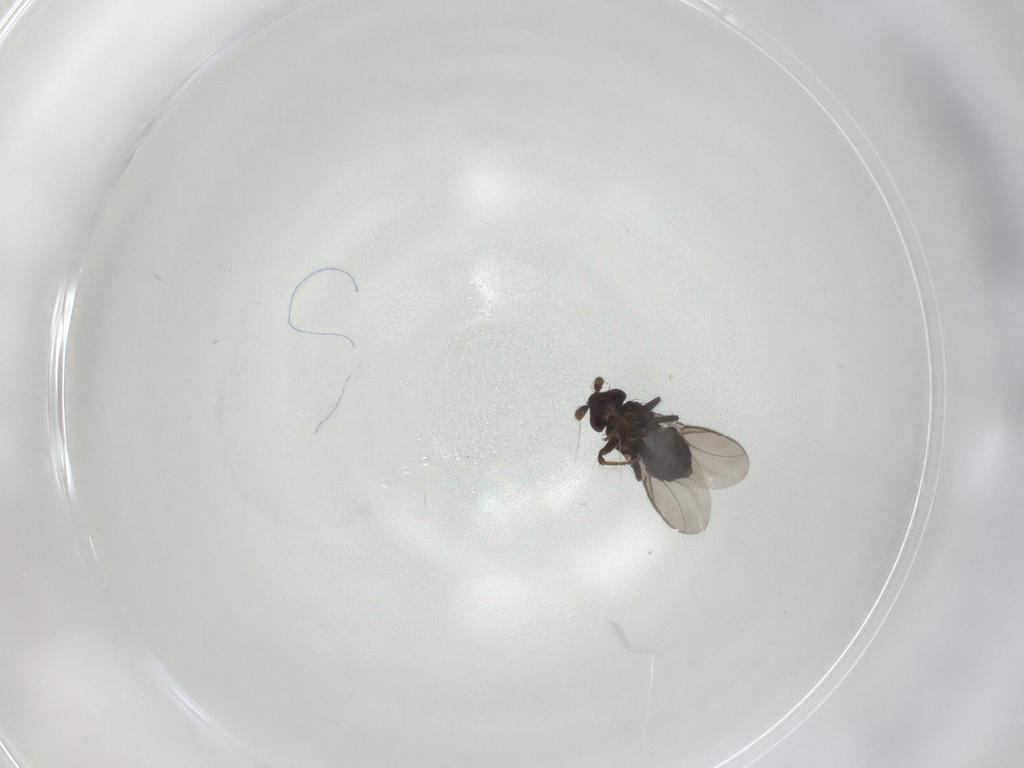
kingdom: Animalia
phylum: Arthropoda
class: Insecta
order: Diptera
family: Sphaeroceridae
